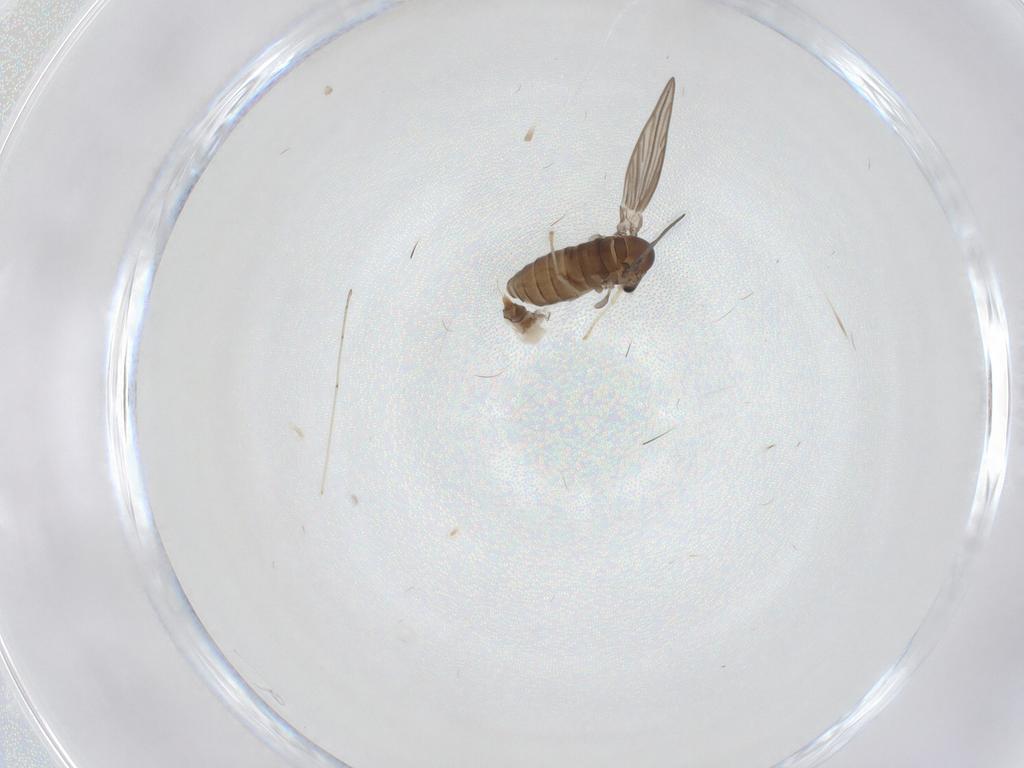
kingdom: Animalia
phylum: Arthropoda
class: Insecta
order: Diptera
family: Psychodidae
